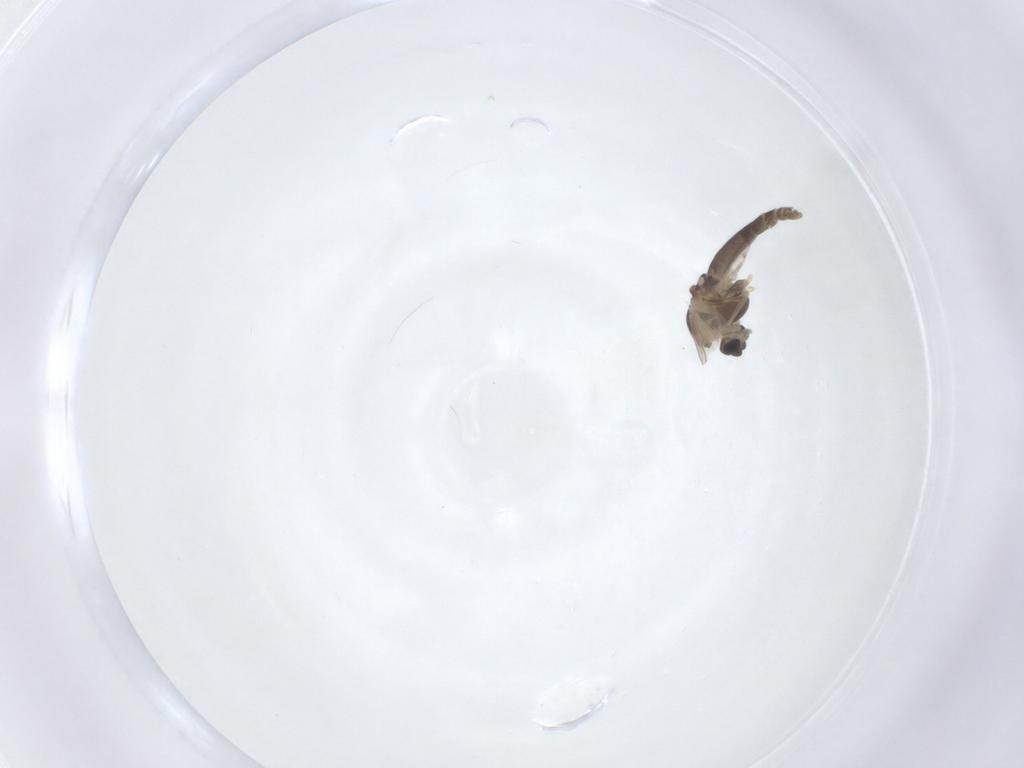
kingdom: Animalia
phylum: Arthropoda
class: Insecta
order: Diptera
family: Chironomidae
